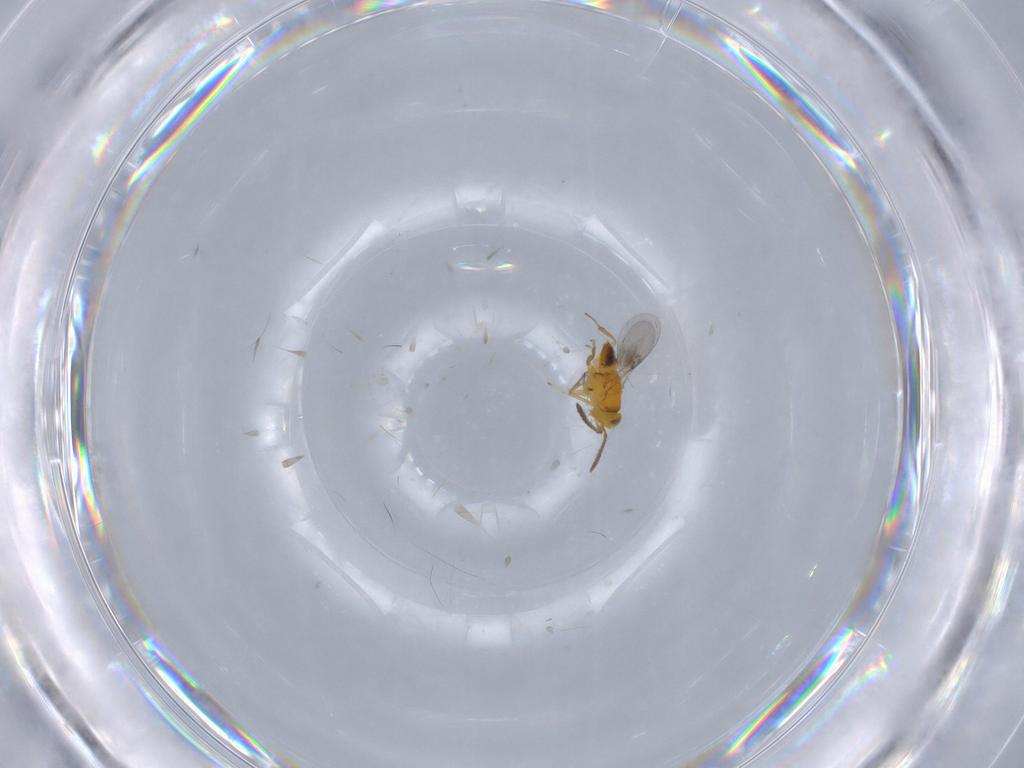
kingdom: Animalia
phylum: Arthropoda
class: Insecta
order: Hymenoptera
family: Encyrtidae
